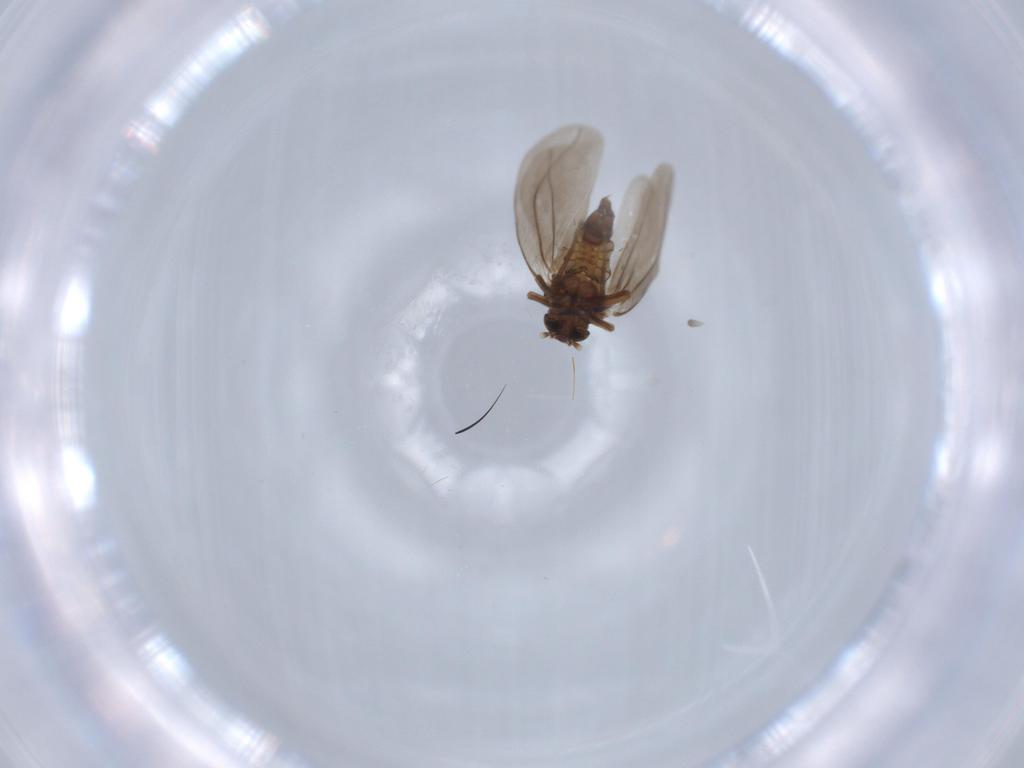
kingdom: Animalia
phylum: Arthropoda
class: Insecta
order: Hemiptera
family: Aleyrodidae
